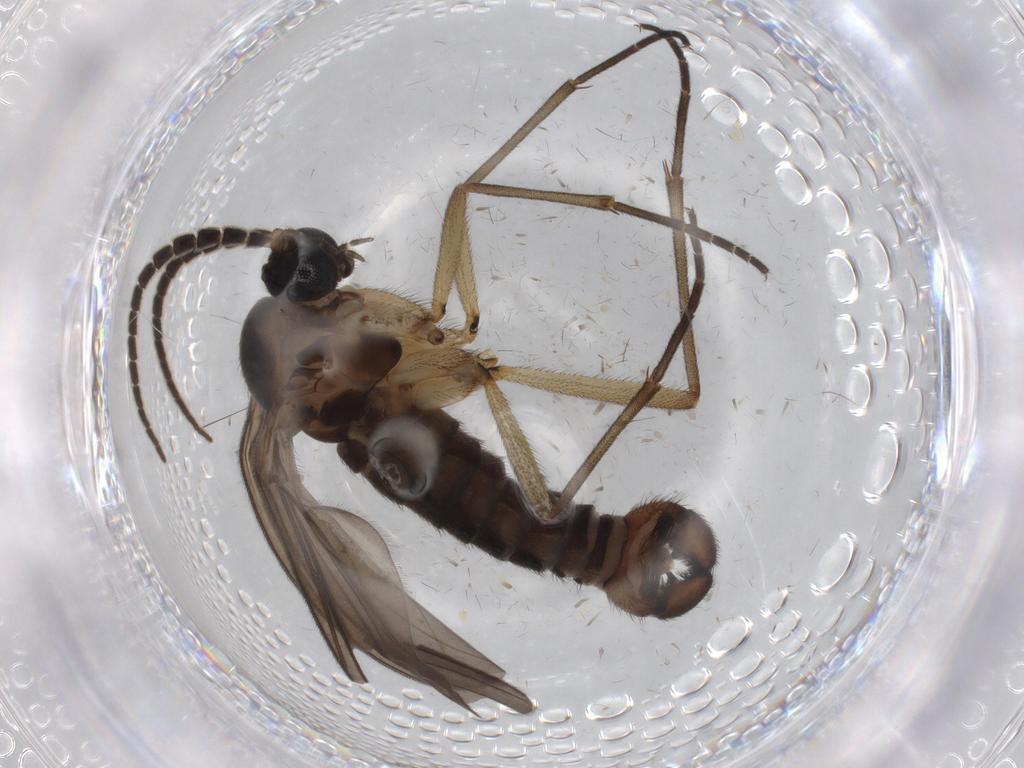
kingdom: Animalia
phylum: Arthropoda
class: Insecta
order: Diptera
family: Sciaridae
